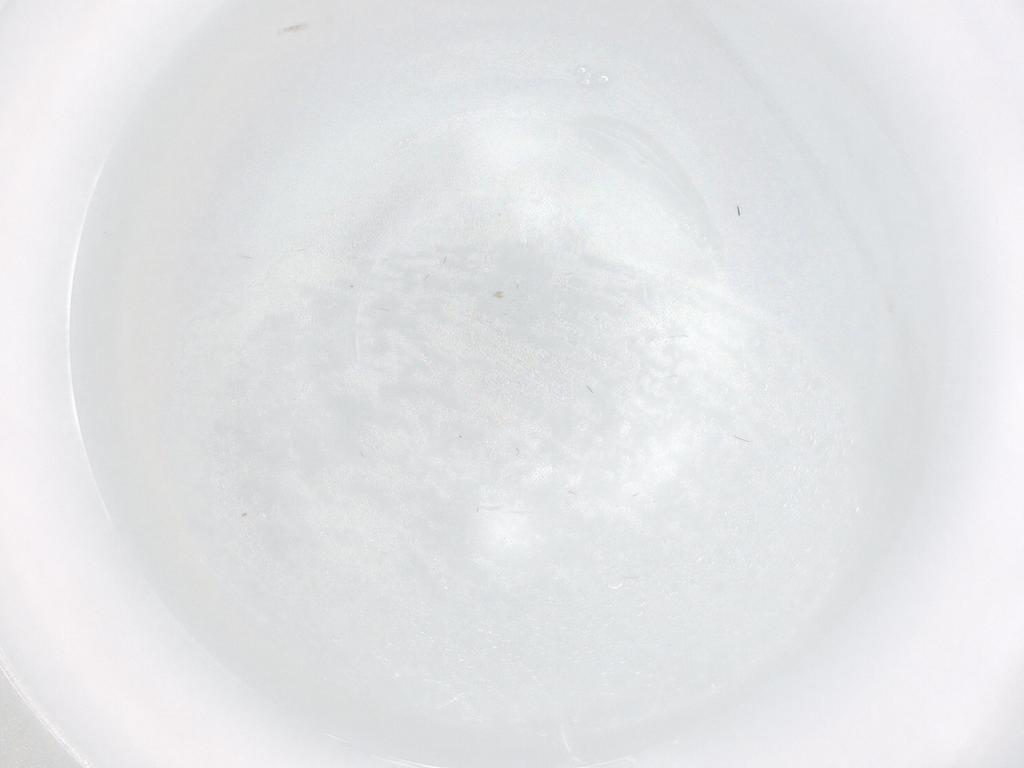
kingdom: Animalia
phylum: Arthropoda
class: Insecta
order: Diptera
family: Cecidomyiidae
